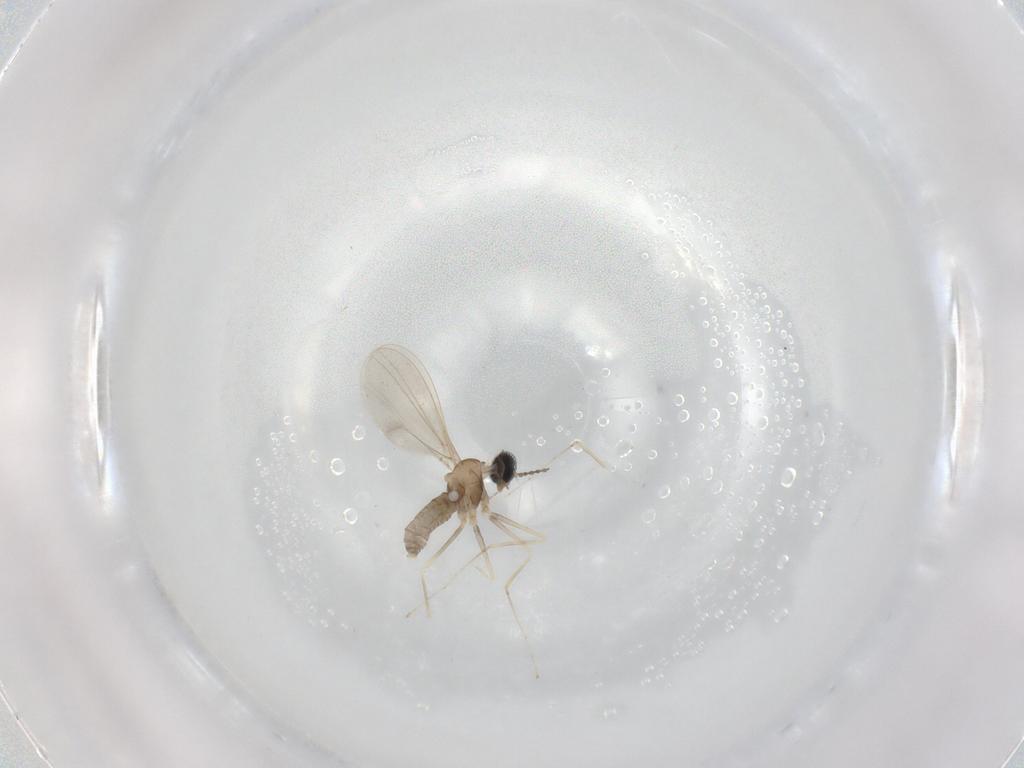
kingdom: Animalia
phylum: Arthropoda
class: Insecta
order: Diptera
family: Cecidomyiidae
